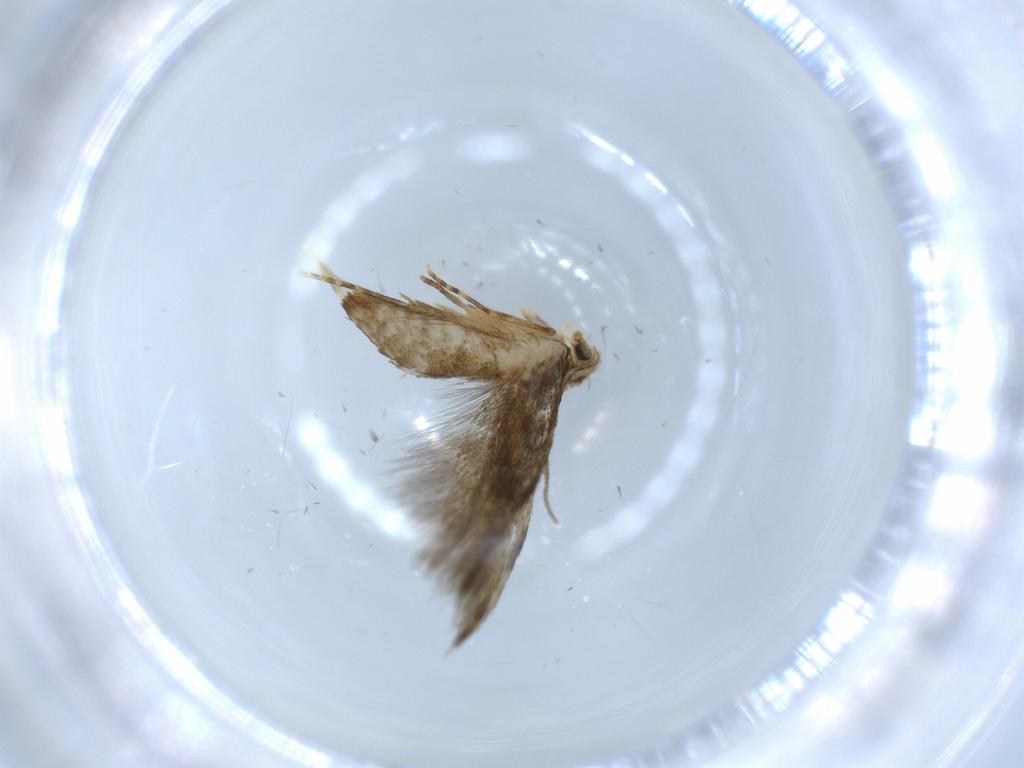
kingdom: Animalia
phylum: Arthropoda
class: Insecta
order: Lepidoptera
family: Tineidae
